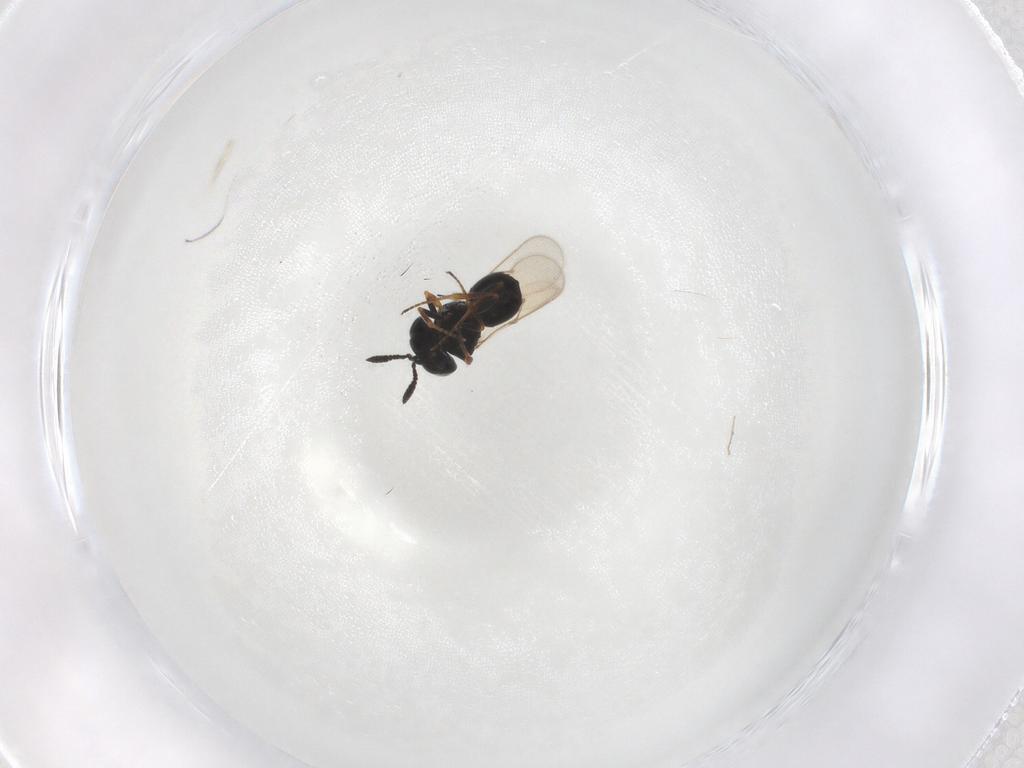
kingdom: Animalia
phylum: Arthropoda
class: Insecta
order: Hymenoptera
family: Scelionidae
